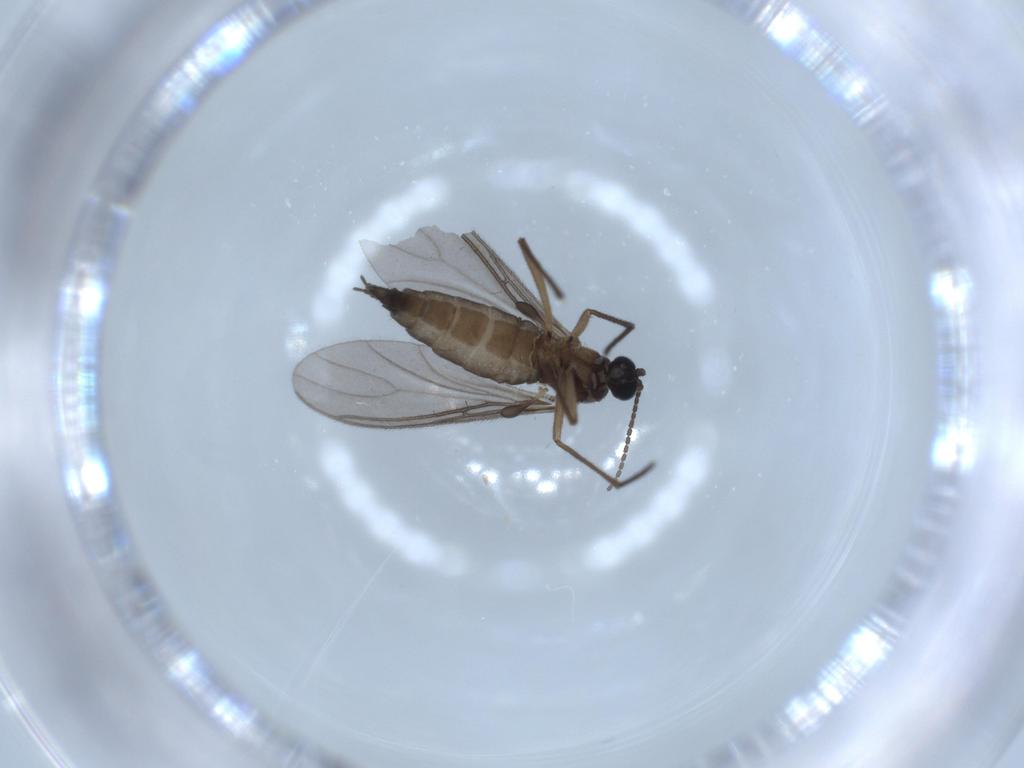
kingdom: Animalia
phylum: Arthropoda
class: Insecta
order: Diptera
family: Sciaridae
